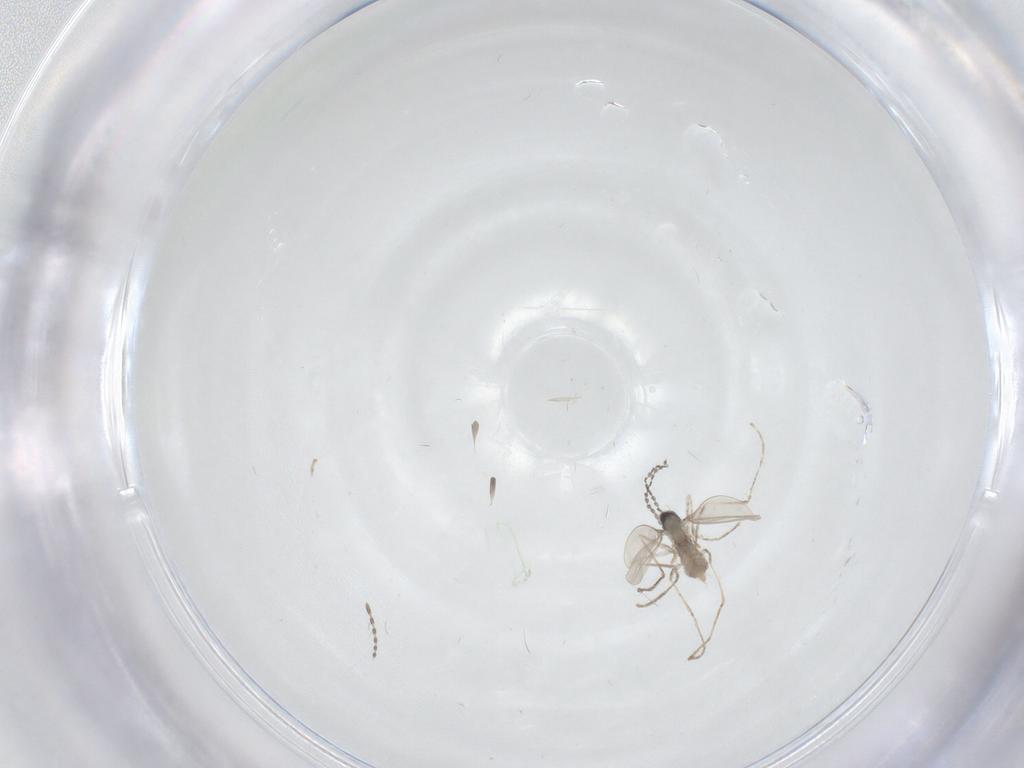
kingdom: Animalia
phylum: Arthropoda
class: Insecta
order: Diptera
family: Cecidomyiidae
